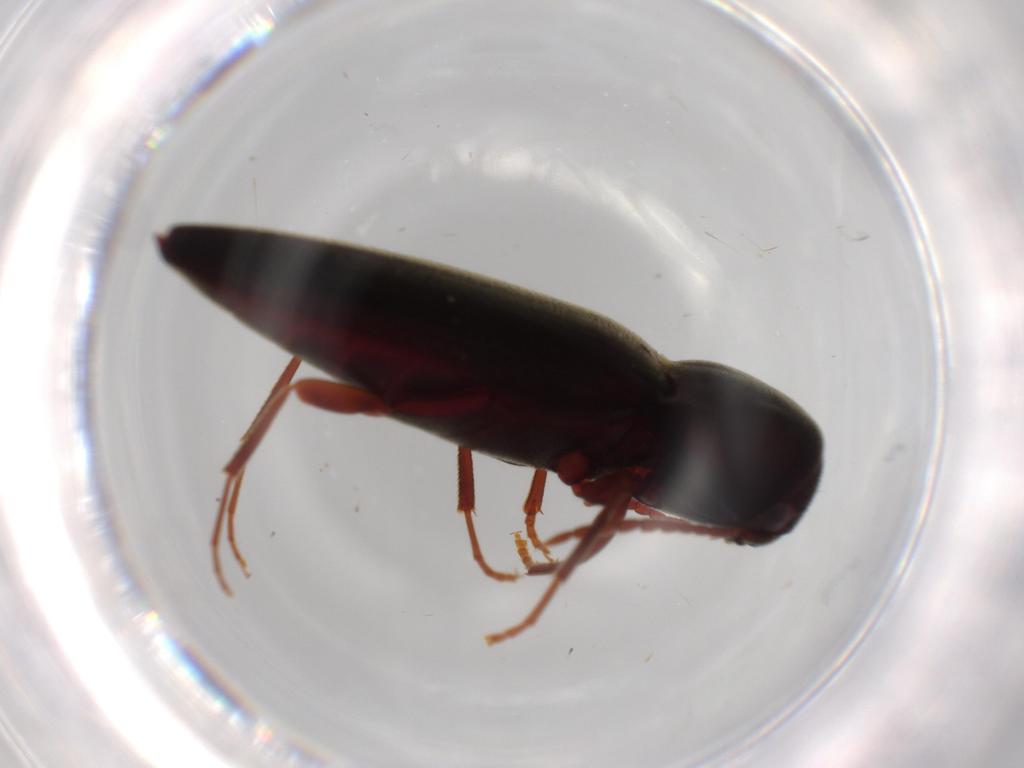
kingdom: Animalia
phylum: Arthropoda
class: Insecta
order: Coleoptera
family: Eucnemidae
